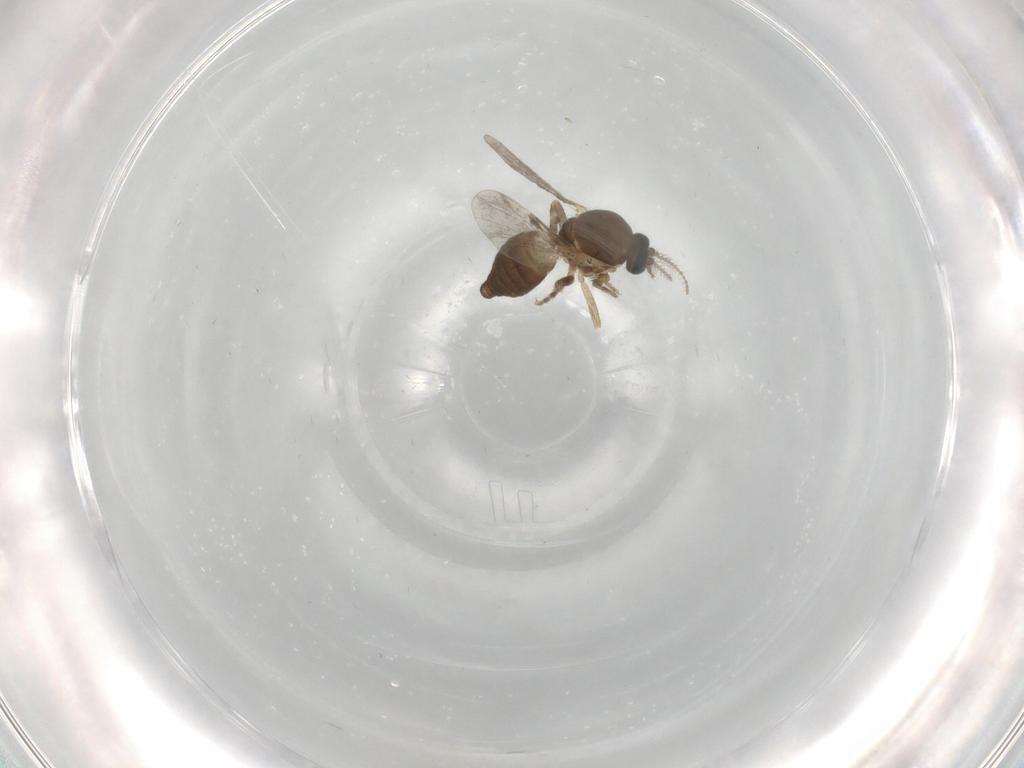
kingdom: Animalia
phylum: Arthropoda
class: Insecta
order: Diptera
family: Ceratopogonidae
